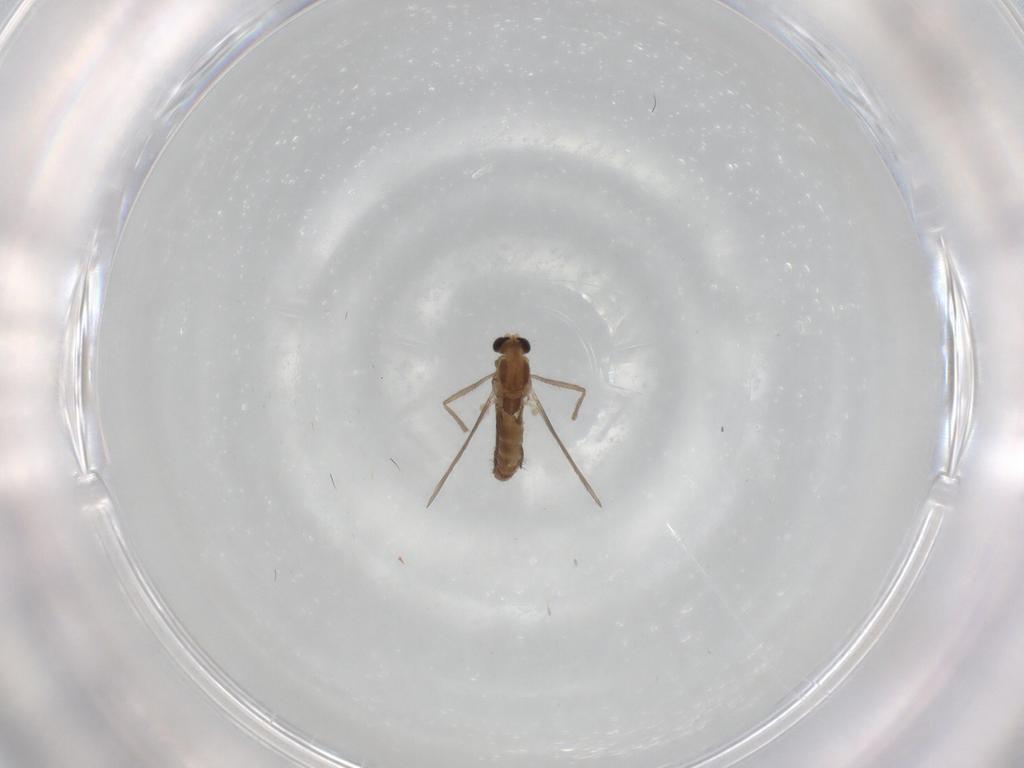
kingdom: Animalia
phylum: Arthropoda
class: Insecta
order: Diptera
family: Chironomidae
